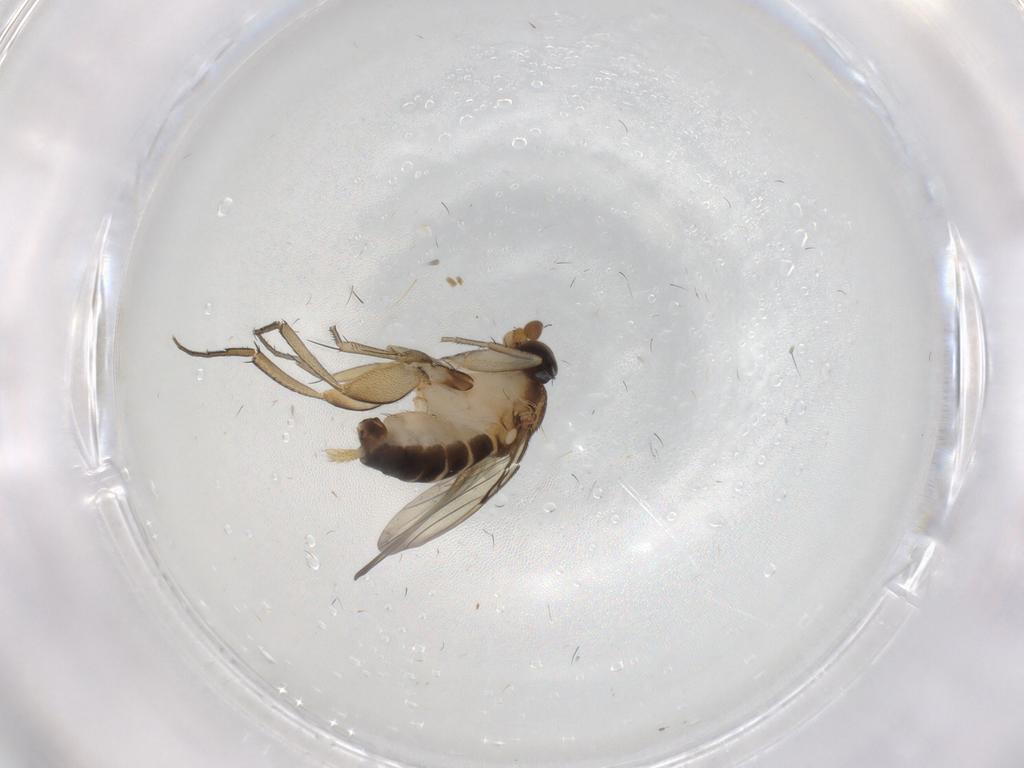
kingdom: Animalia
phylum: Arthropoda
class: Insecta
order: Diptera
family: Phoridae
